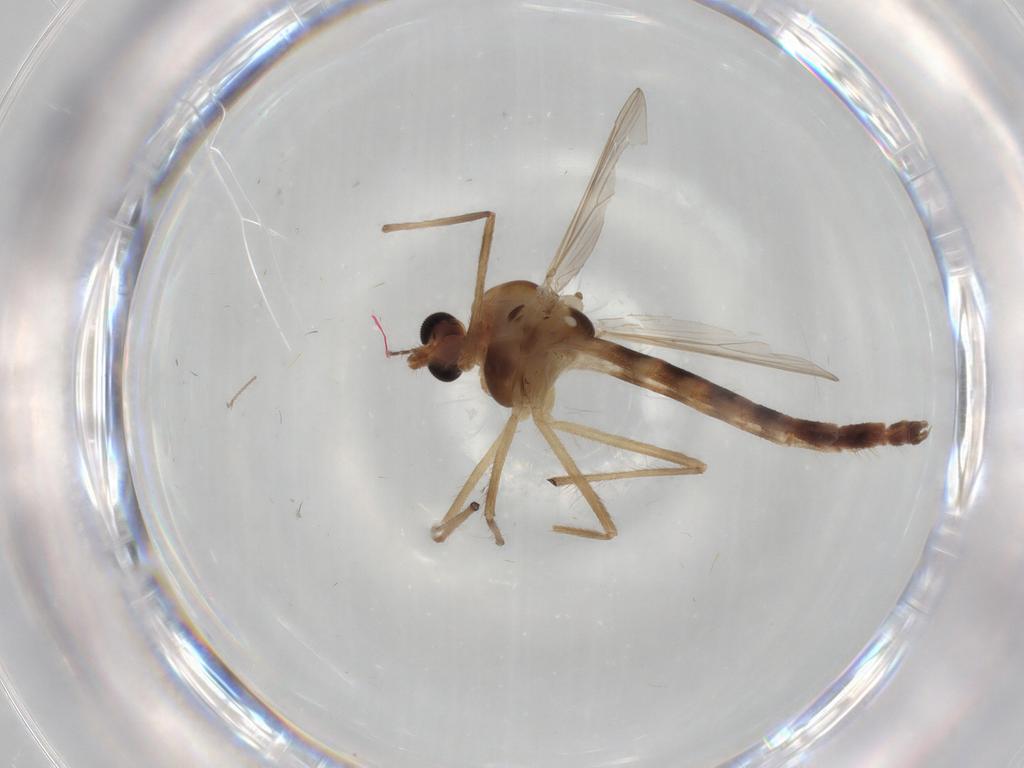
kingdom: Animalia
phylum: Arthropoda
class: Insecta
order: Diptera
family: Chironomidae
